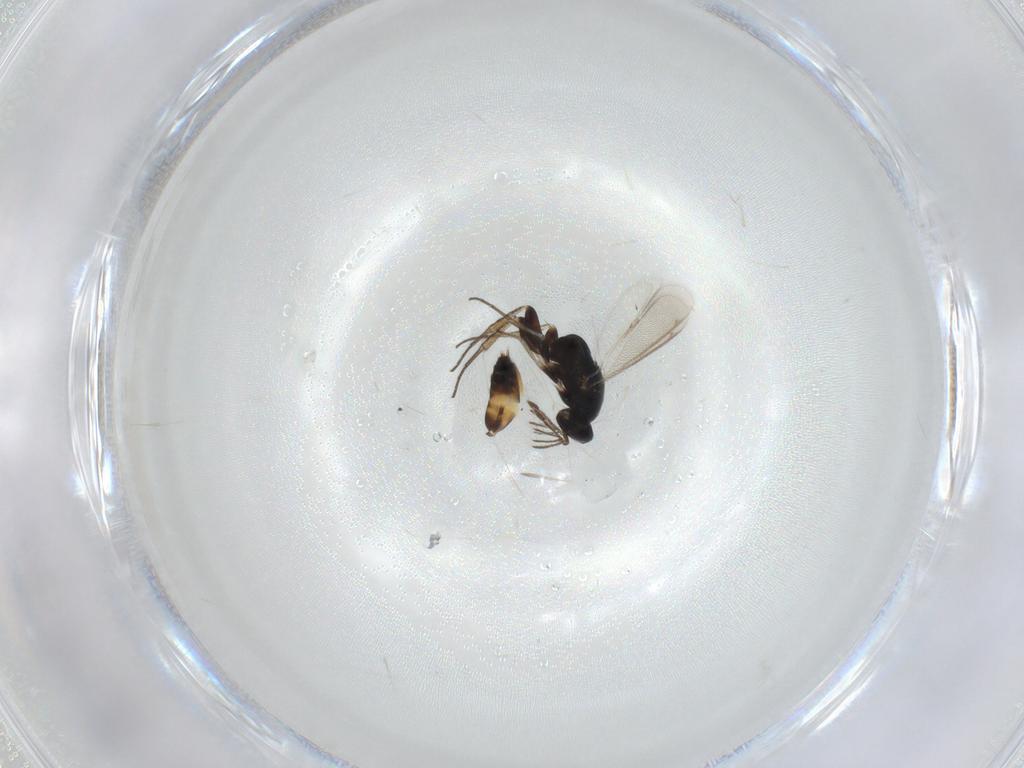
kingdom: Animalia
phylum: Arthropoda
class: Insecta
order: Hymenoptera
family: Eulophidae
